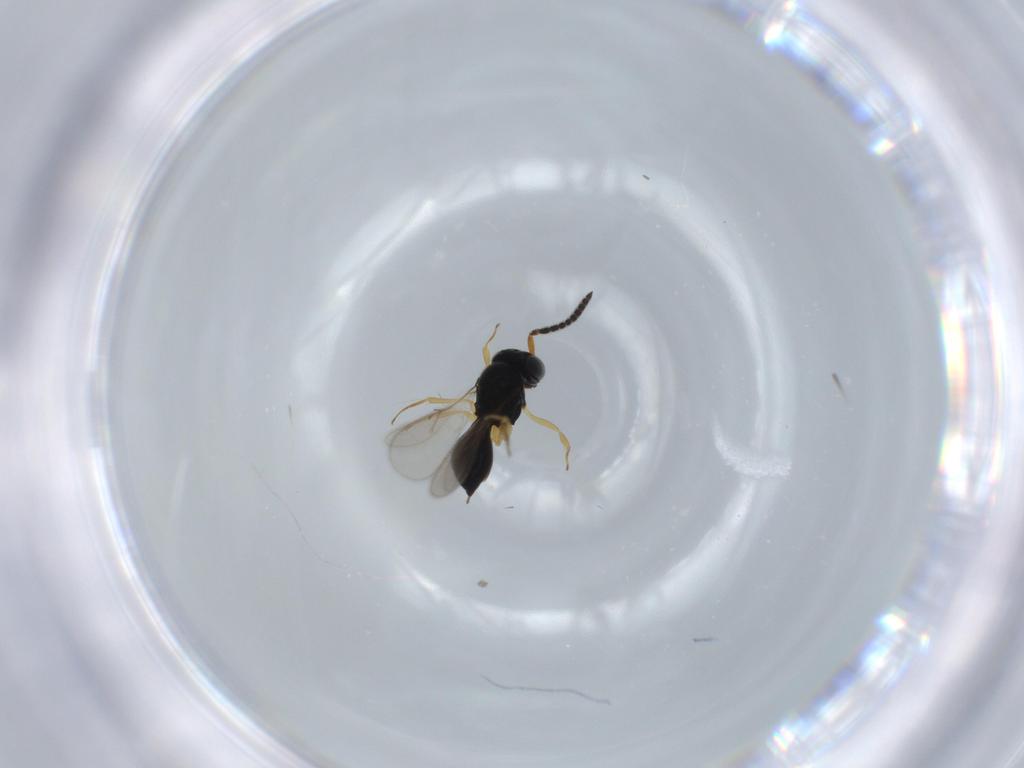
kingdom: Animalia
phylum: Arthropoda
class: Insecta
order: Hymenoptera
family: Scelionidae
